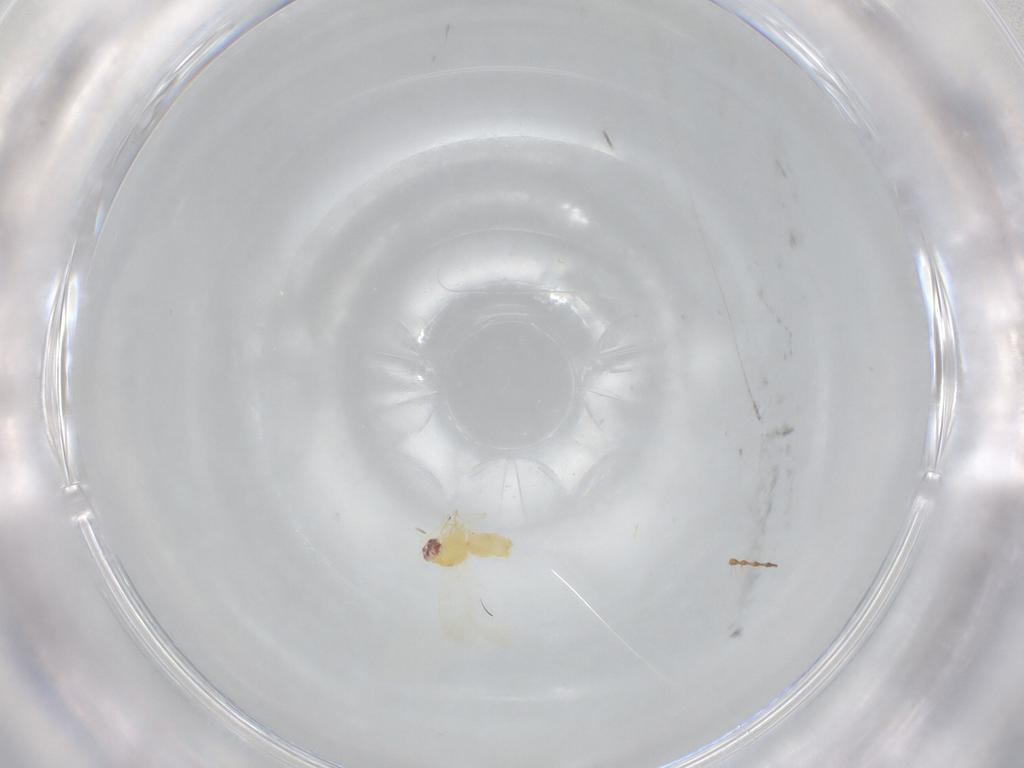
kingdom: Animalia
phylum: Arthropoda
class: Insecta
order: Hemiptera
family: Aleyrodidae
